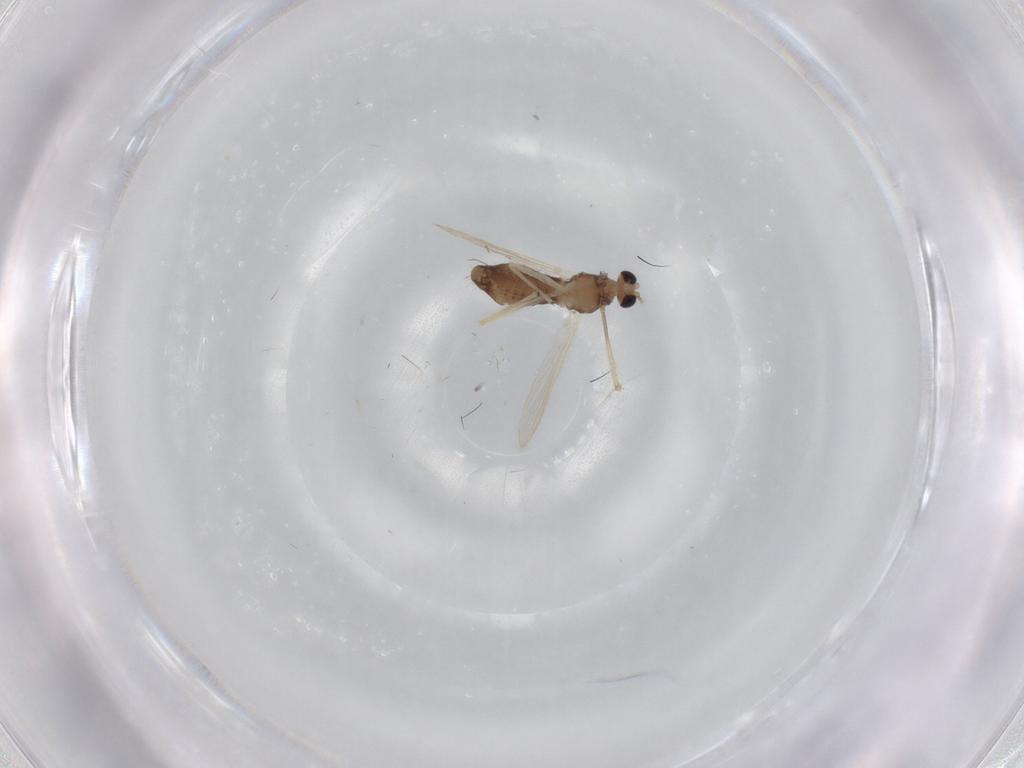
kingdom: Animalia
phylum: Arthropoda
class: Insecta
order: Diptera
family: Chironomidae
